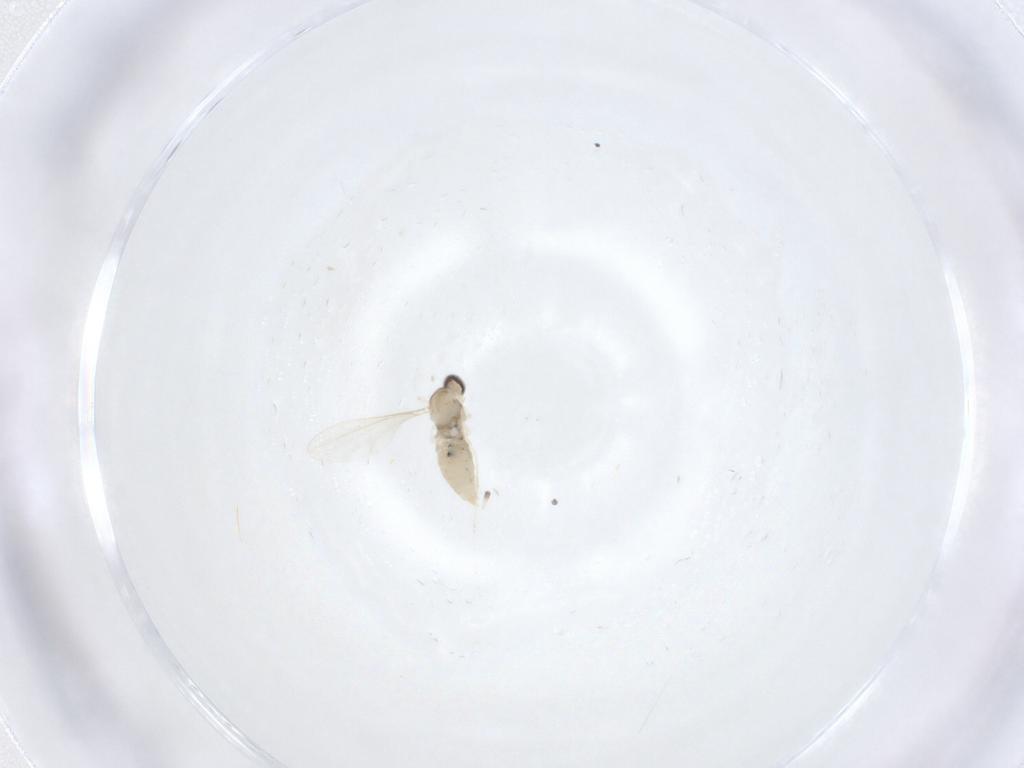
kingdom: Animalia
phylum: Arthropoda
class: Insecta
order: Diptera
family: Cecidomyiidae
